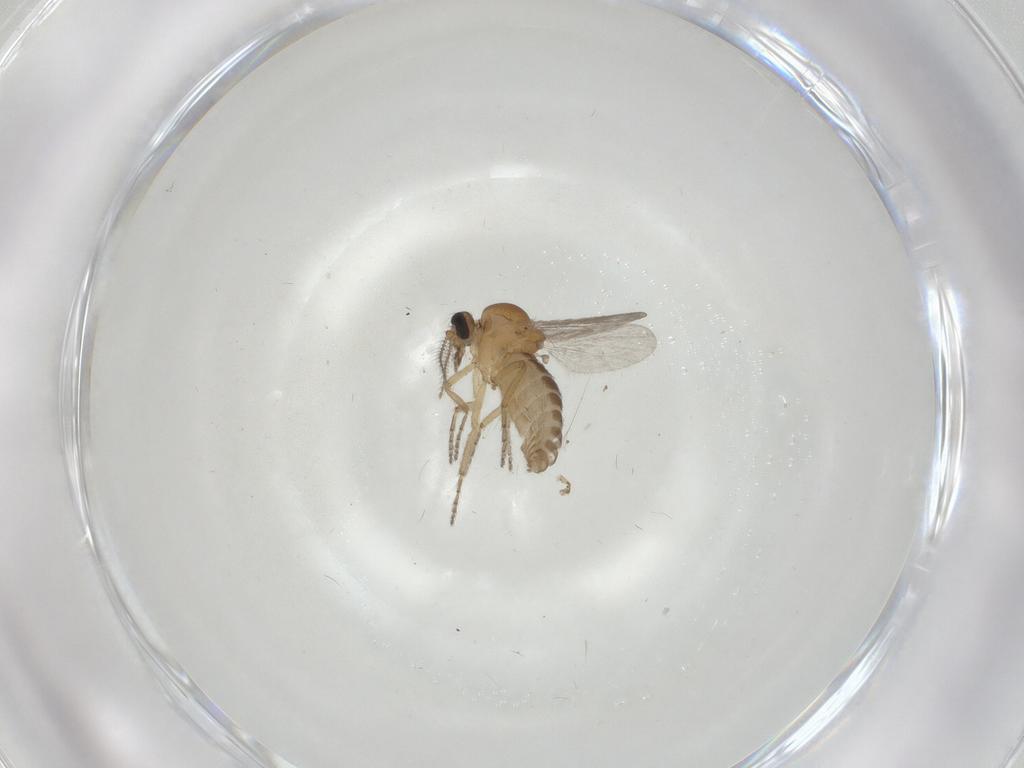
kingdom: Animalia
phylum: Arthropoda
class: Insecta
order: Diptera
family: Ceratopogonidae
